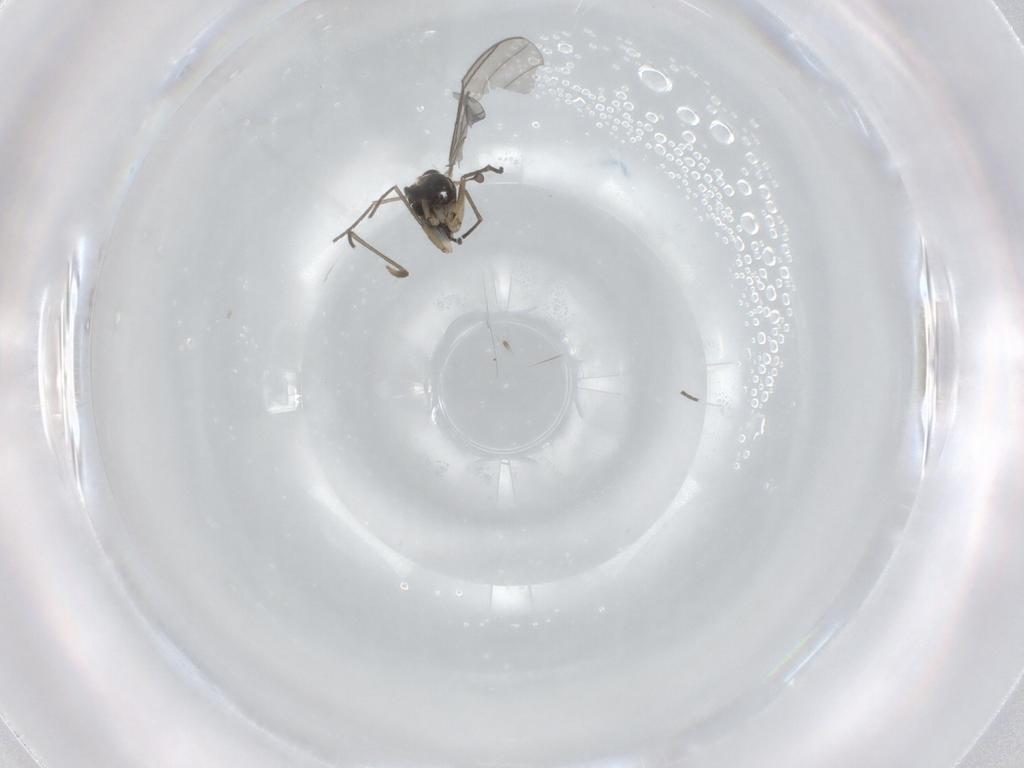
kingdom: Animalia
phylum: Arthropoda
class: Insecta
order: Diptera
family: Sciaridae
